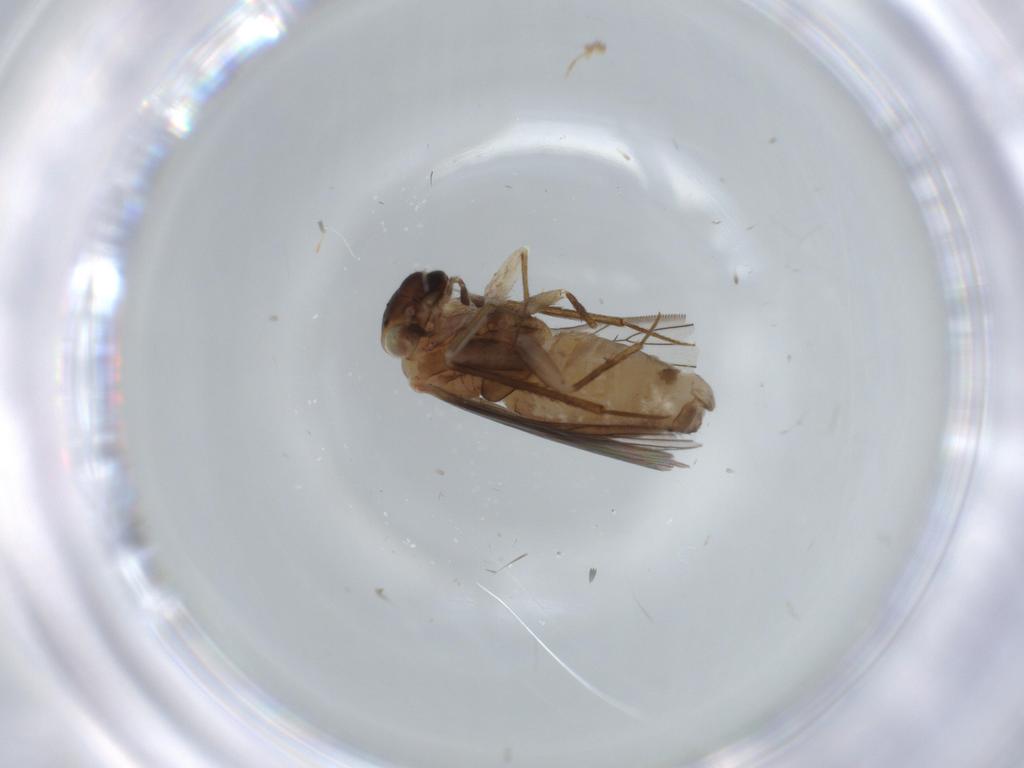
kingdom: Animalia
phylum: Arthropoda
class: Insecta
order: Psocodea
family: Lepidopsocidae
